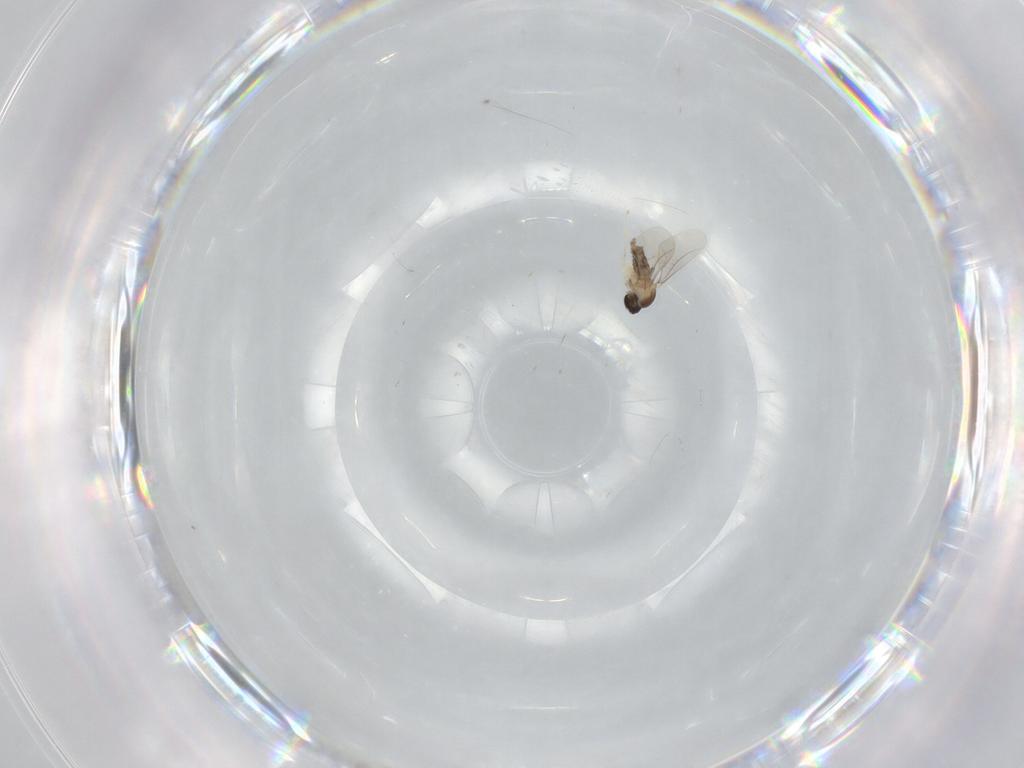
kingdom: Animalia
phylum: Arthropoda
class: Insecta
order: Diptera
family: Cecidomyiidae
